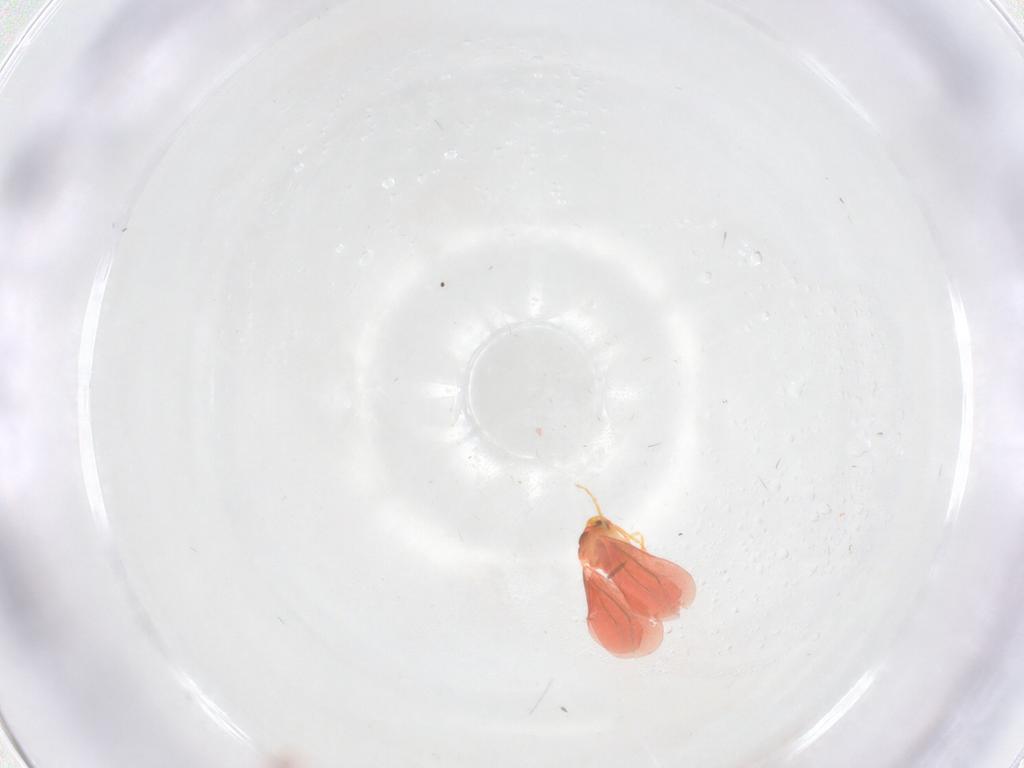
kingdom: Animalia
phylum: Arthropoda
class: Insecta
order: Hemiptera
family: Aleyrodidae
